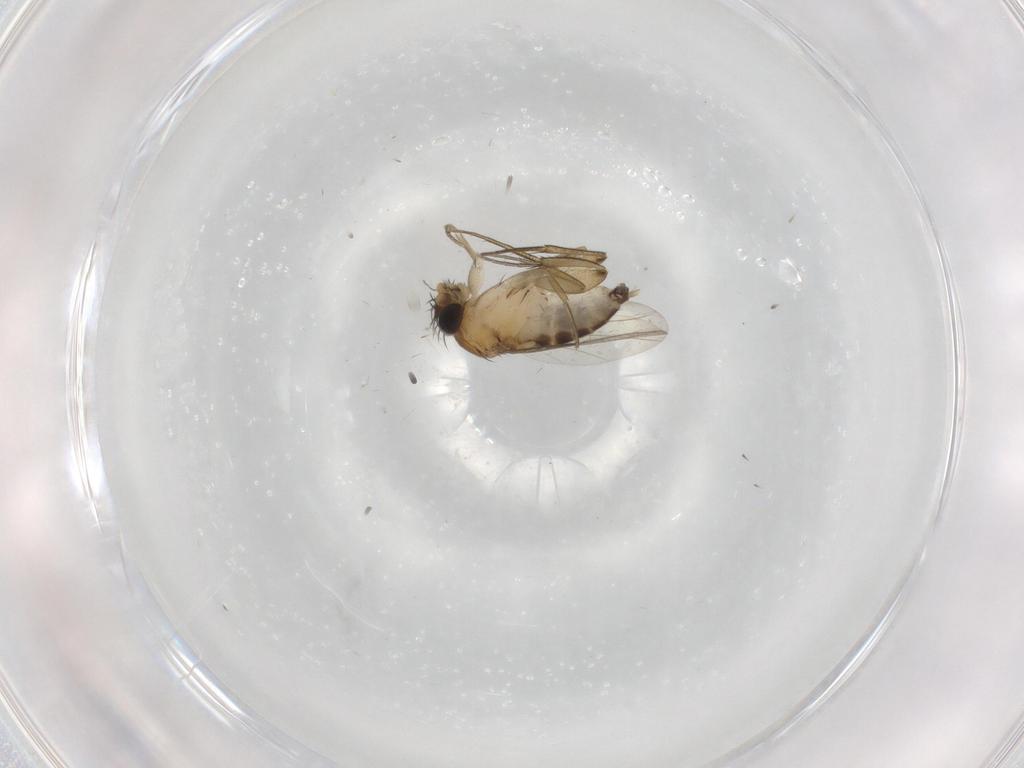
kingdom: Animalia
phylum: Arthropoda
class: Insecta
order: Diptera
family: Phoridae
